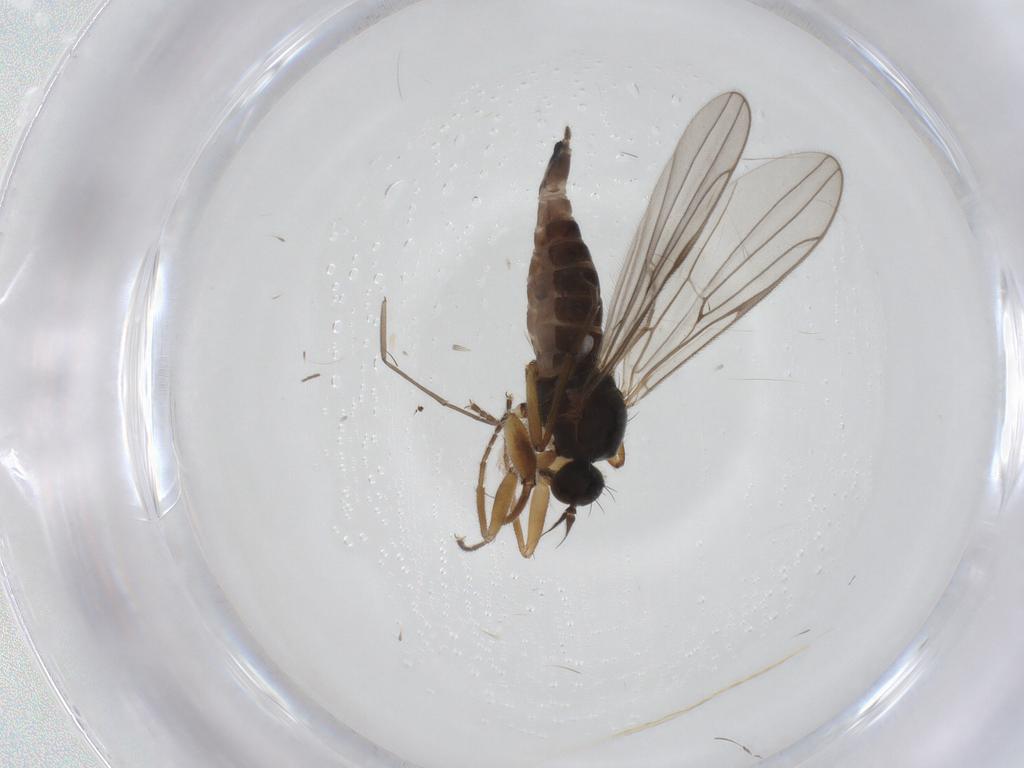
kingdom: Animalia
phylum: Arthropoda
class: Insecta
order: Diptera
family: Hybotidae
